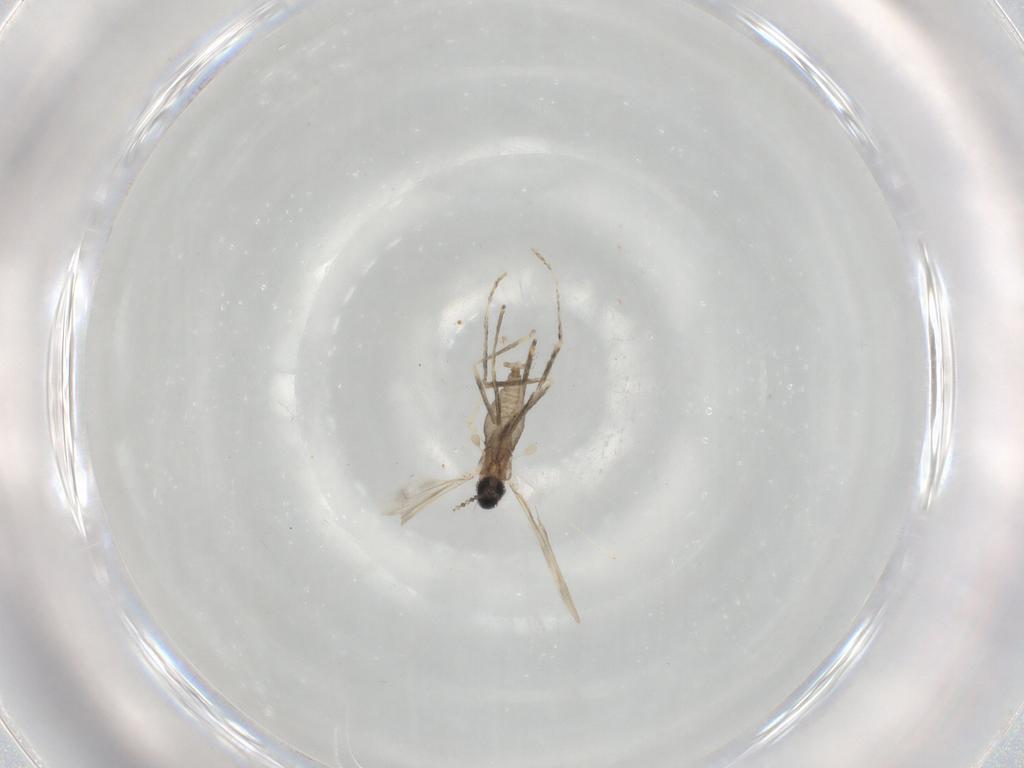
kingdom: Animalia
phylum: Arthropoda
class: Insecta
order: Diptera
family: Cecidomyiidae
